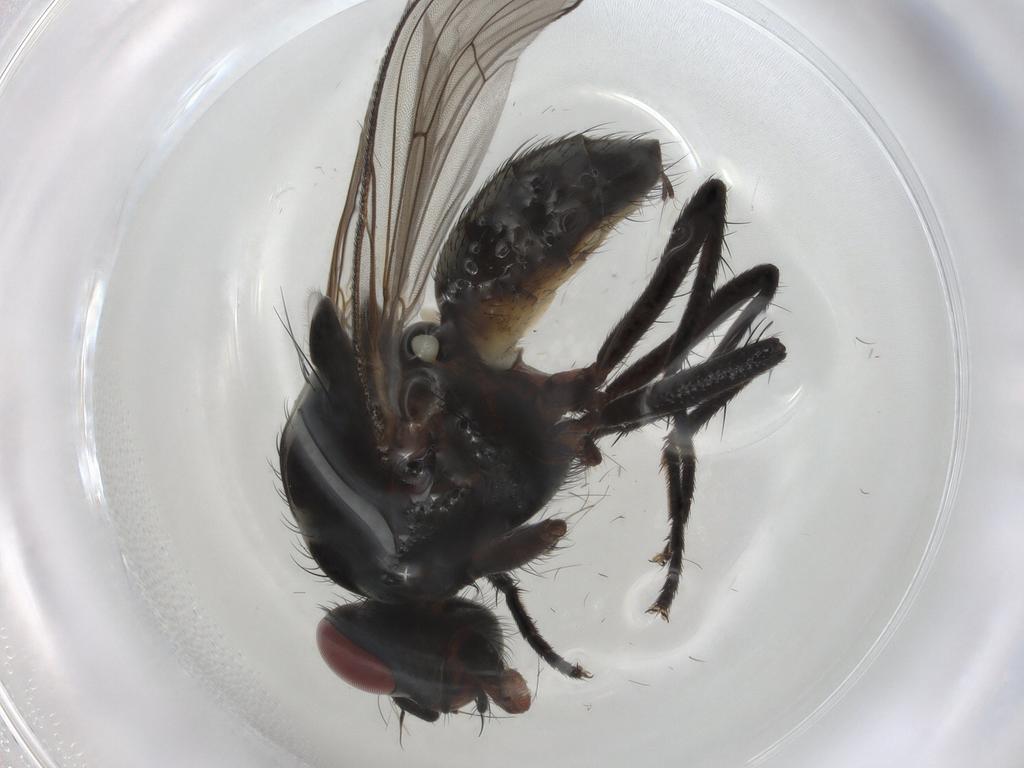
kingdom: Animalia
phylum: Arthropoda
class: Insecta
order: Diptera
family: Anthomyiidae
